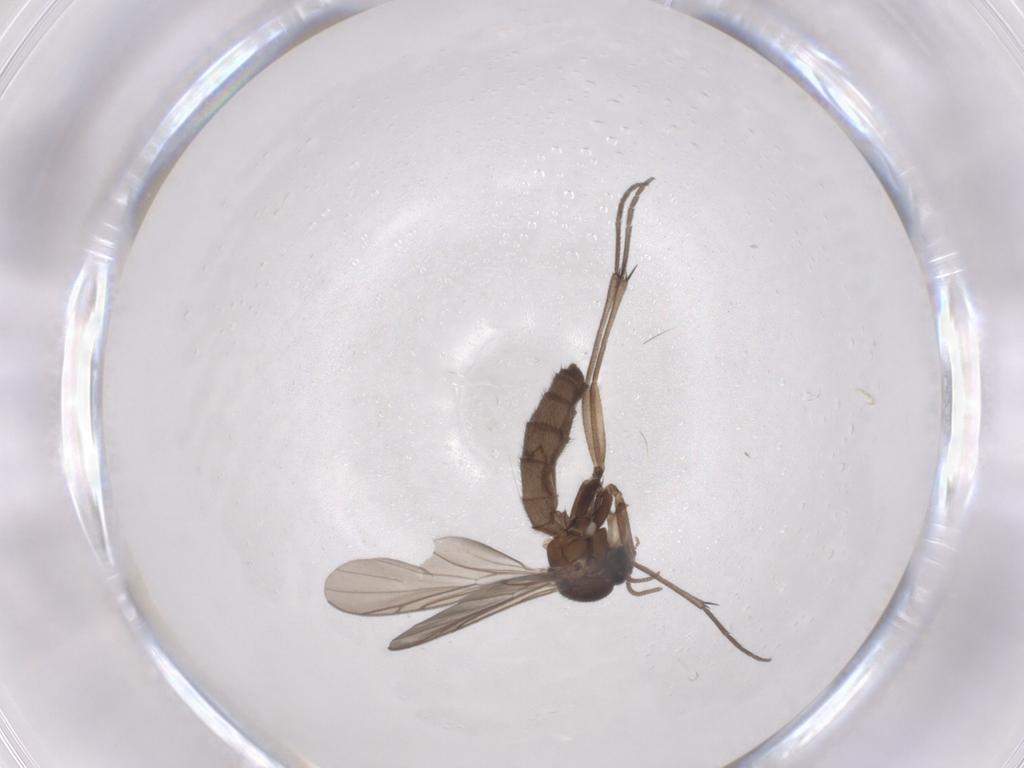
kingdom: Animalia
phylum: Arthropoda
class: Insecta
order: Diptera
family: Keroplatidae
